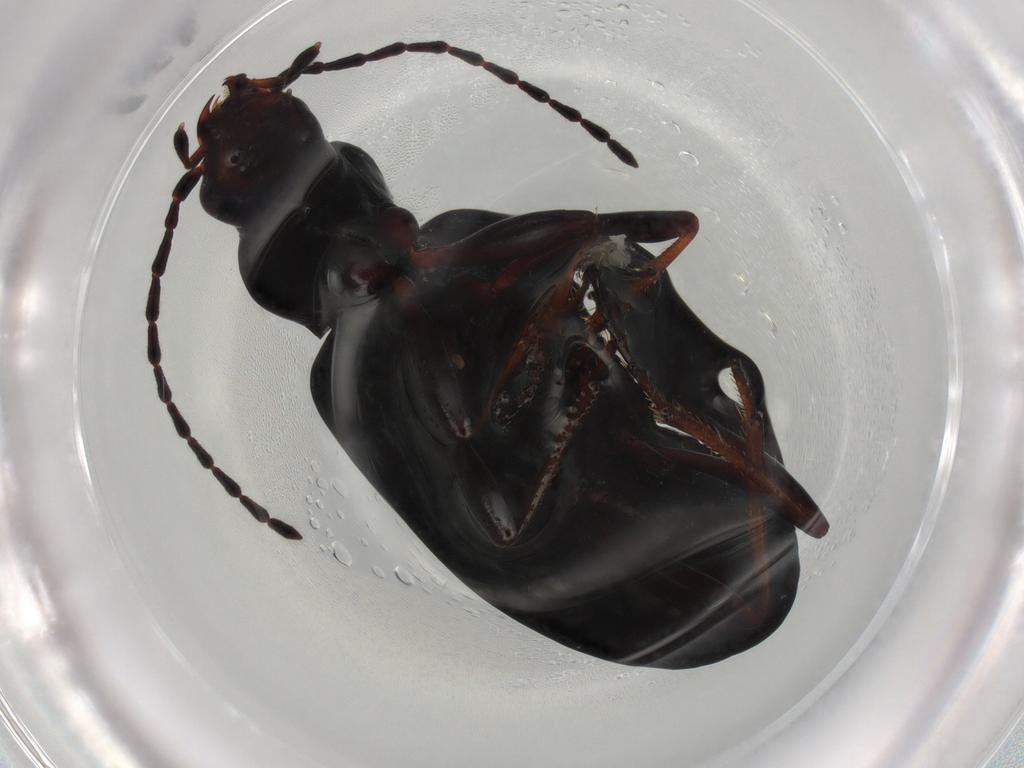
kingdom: Animalia
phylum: Arthropoda
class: Insecta
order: Coleoptera
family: Carabidae
